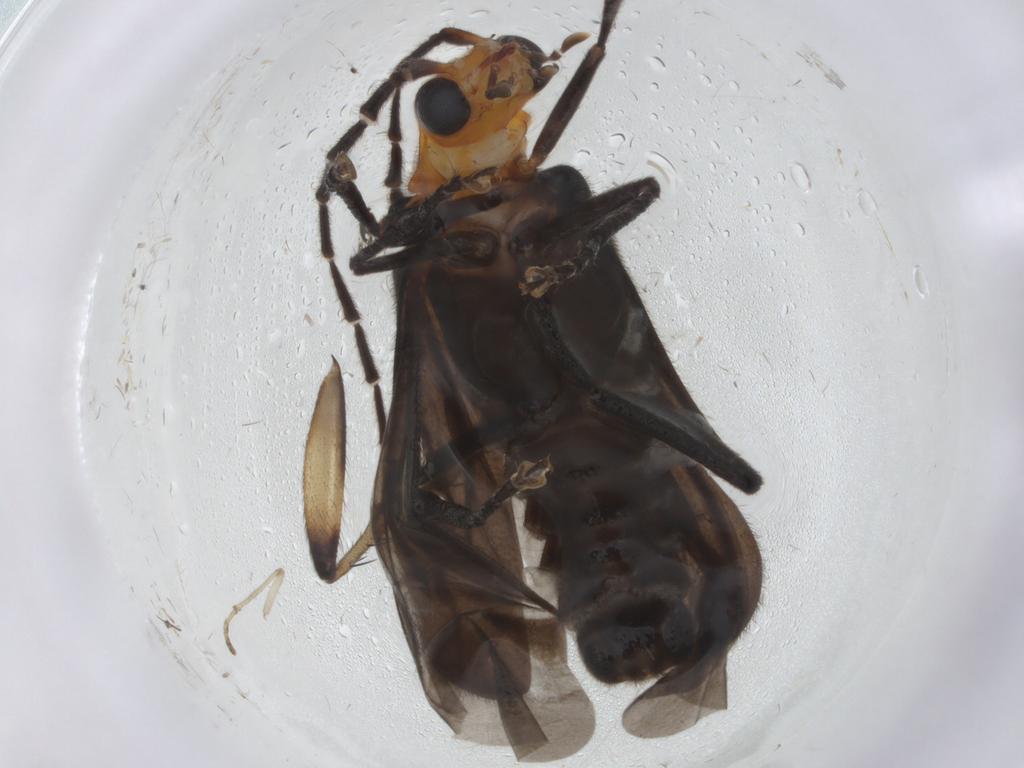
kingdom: Animalia
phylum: Arthropoda
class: Insecta
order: Coleoptera
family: Cantharidae
